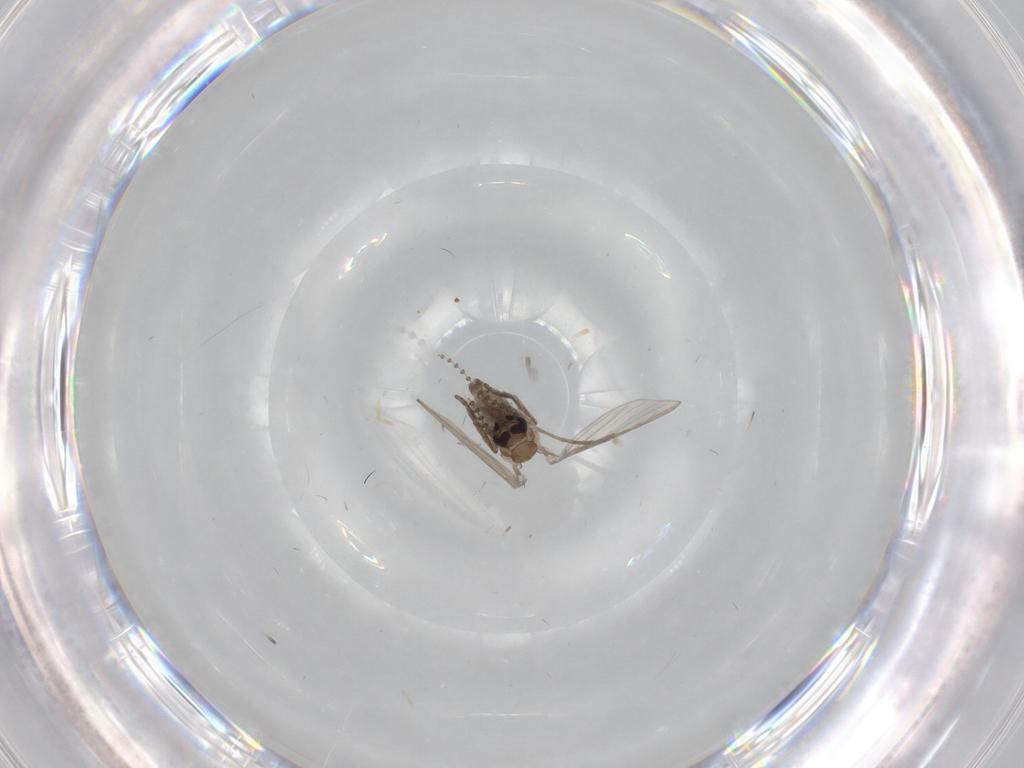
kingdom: Animalia
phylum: Arthropoda
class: Insecta
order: Diptera
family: Psychodidae
